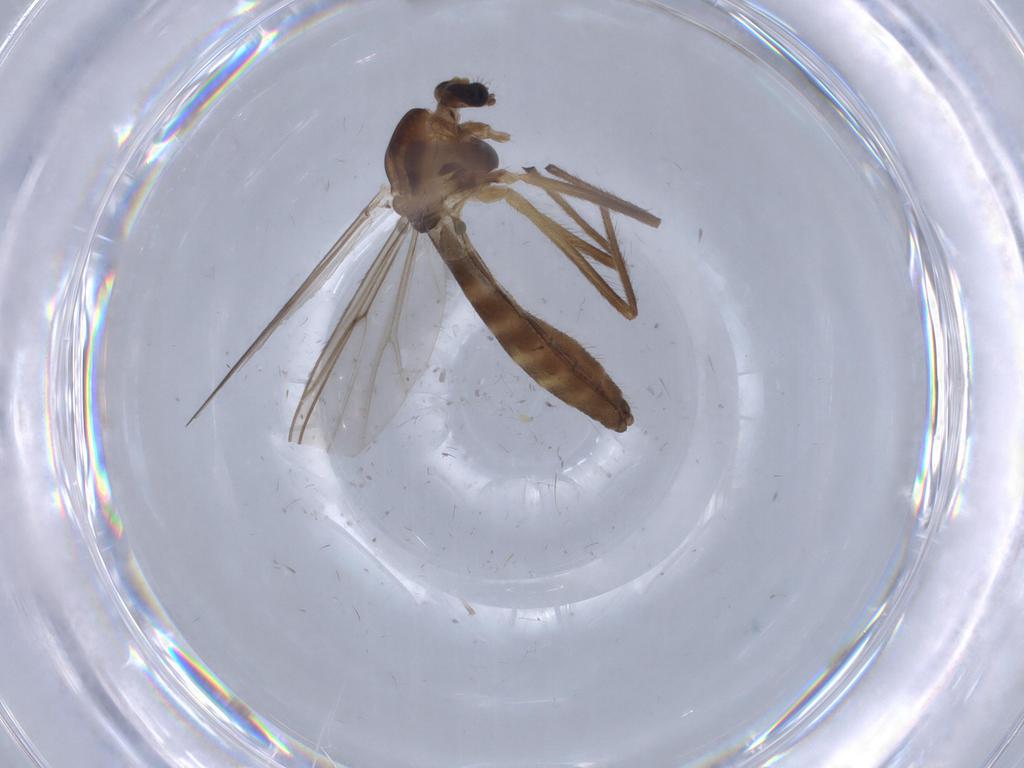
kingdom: Animalia
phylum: Arthropoda
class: Insecta
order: Diptera
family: Chironomidae
